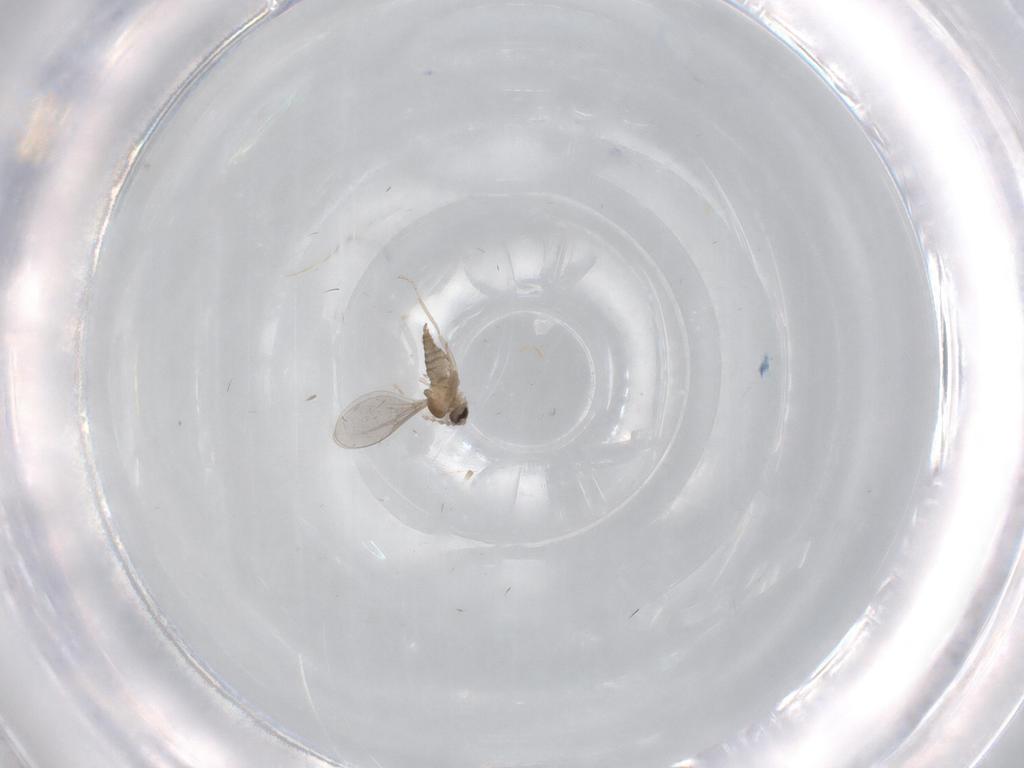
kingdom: Animalia
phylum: Arthropoda
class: Insecta
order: Diptera
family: Cecidomyiidae
